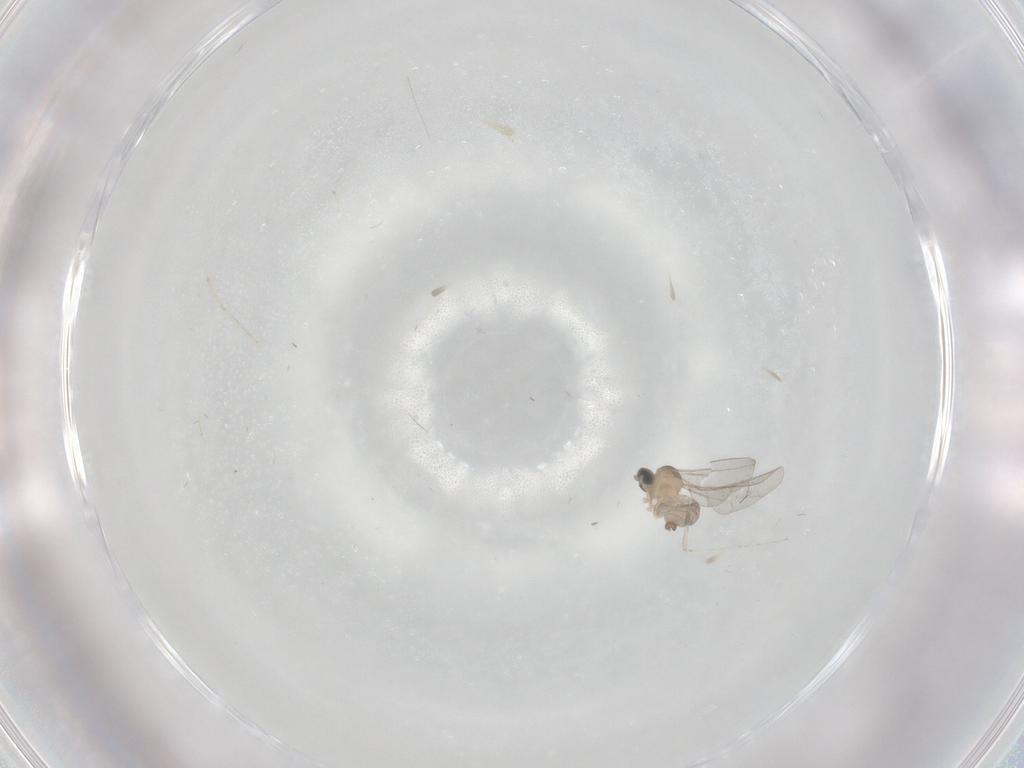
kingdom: Animalia
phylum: Arthropoda
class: Insecta
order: Diptera
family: Cecidomyiidae
